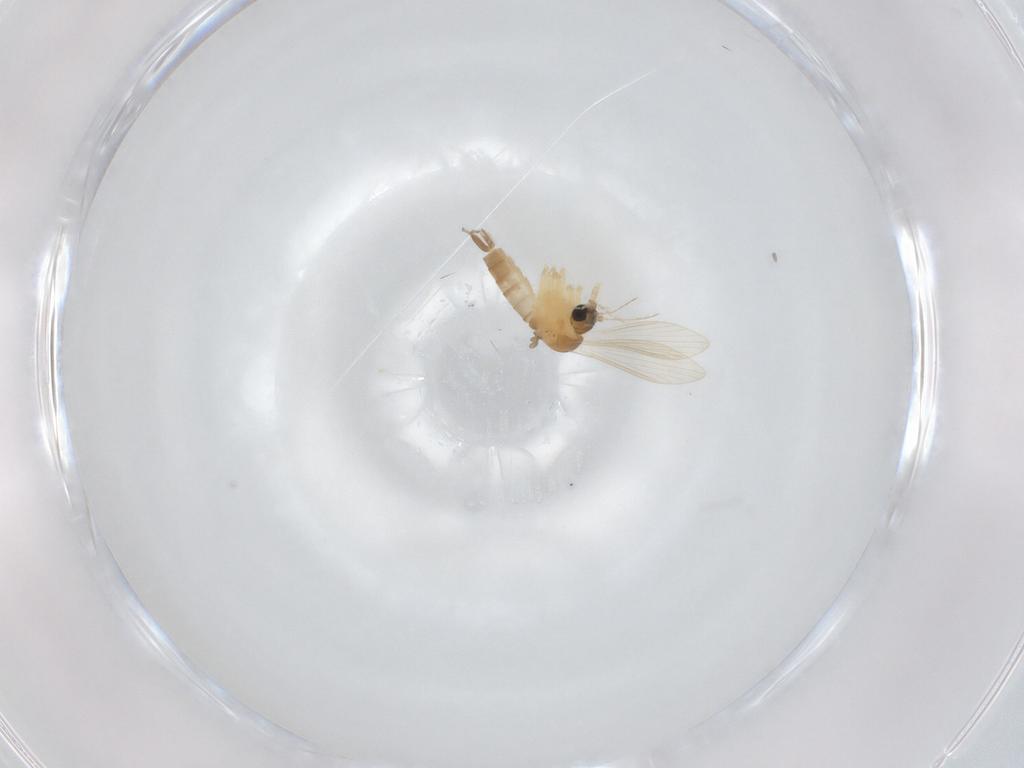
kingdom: Animalia
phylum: Arthropoda
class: Insecta
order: Diptera
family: Psychodidae
